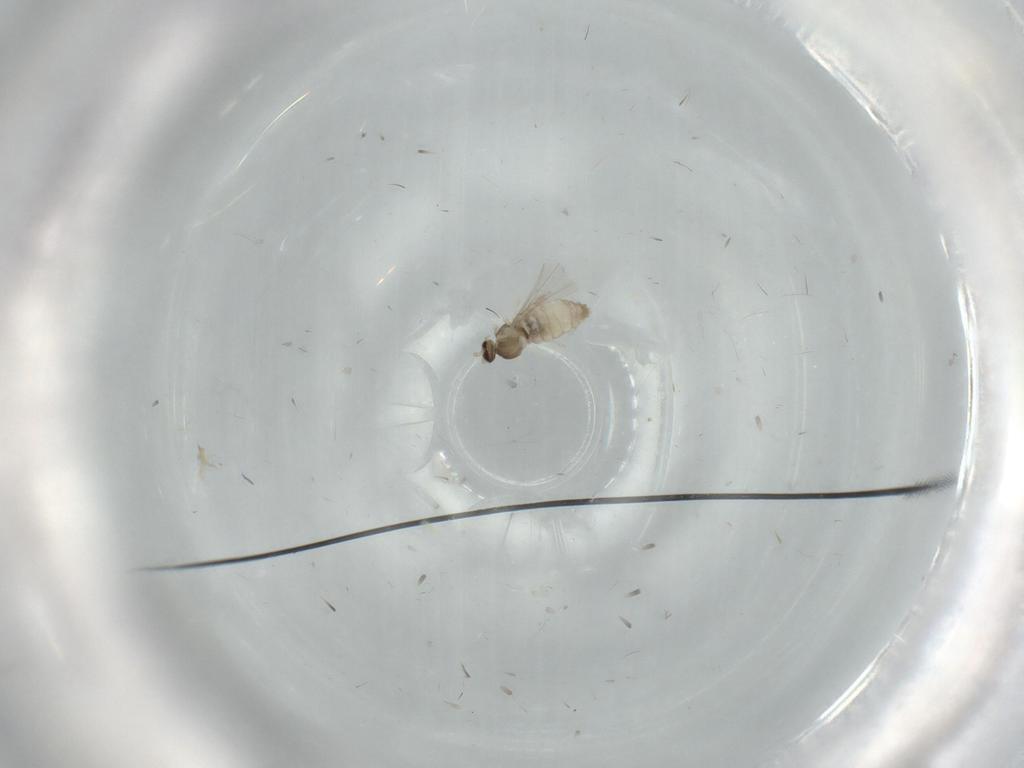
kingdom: Animalia
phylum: Arthropoda
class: Insecta
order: Diptera
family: Cecidomyiidae
